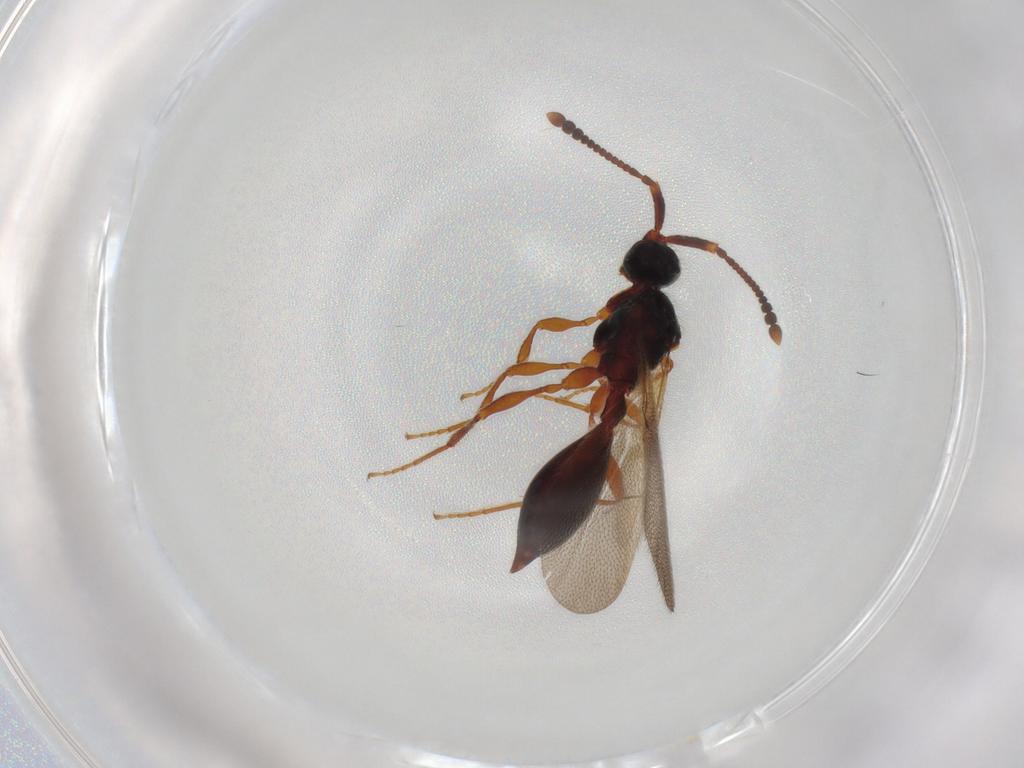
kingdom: Animalia
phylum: Arthropoda
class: Insecta
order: Hymenoptera
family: Diapriidae
